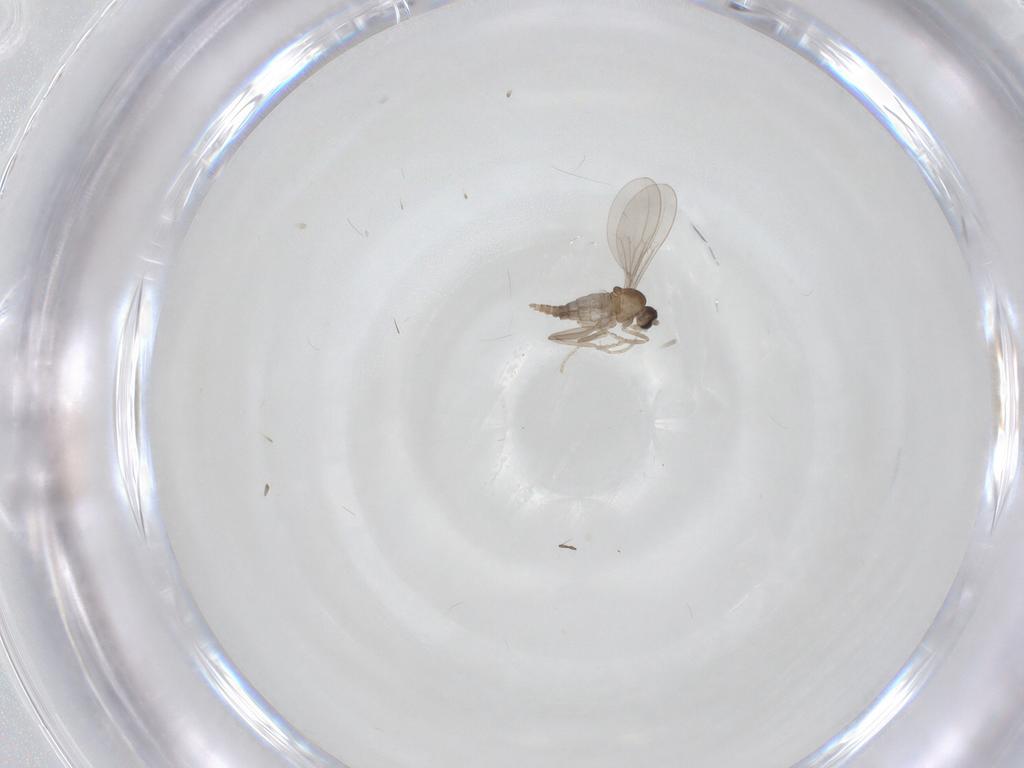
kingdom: Animalia
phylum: Arthropoda
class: Insecta
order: Diptera
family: Chironomidae
